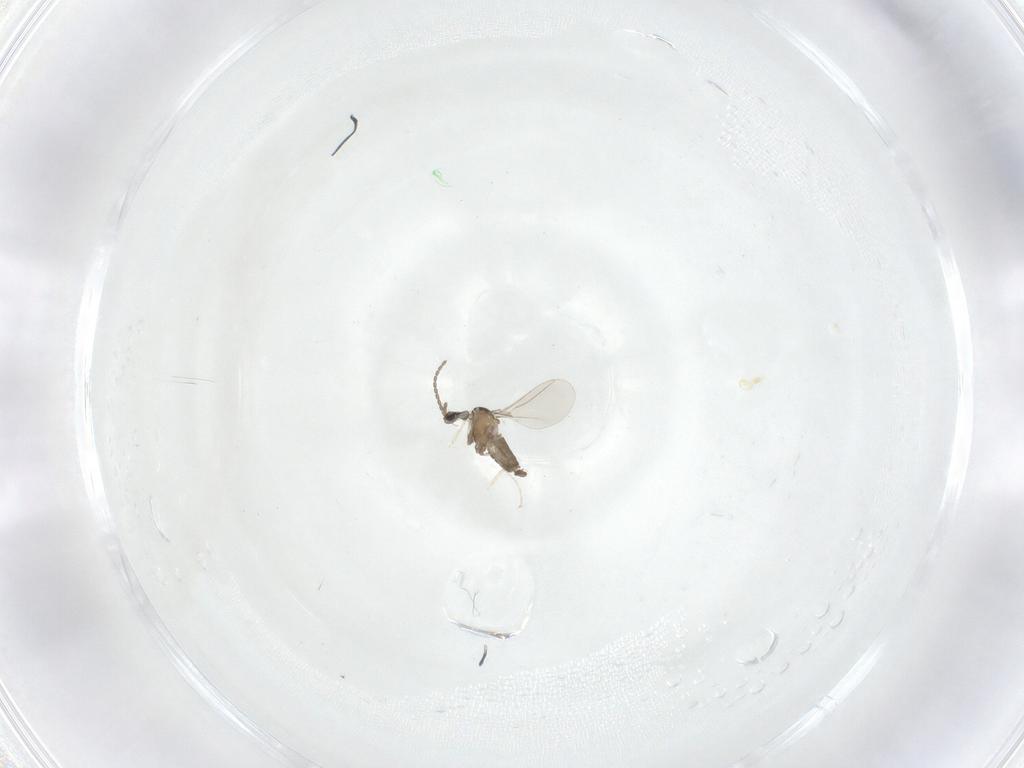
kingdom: Animalia
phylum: Arthropoda
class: Insecta
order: Diptera
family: Cecidomyiidae
